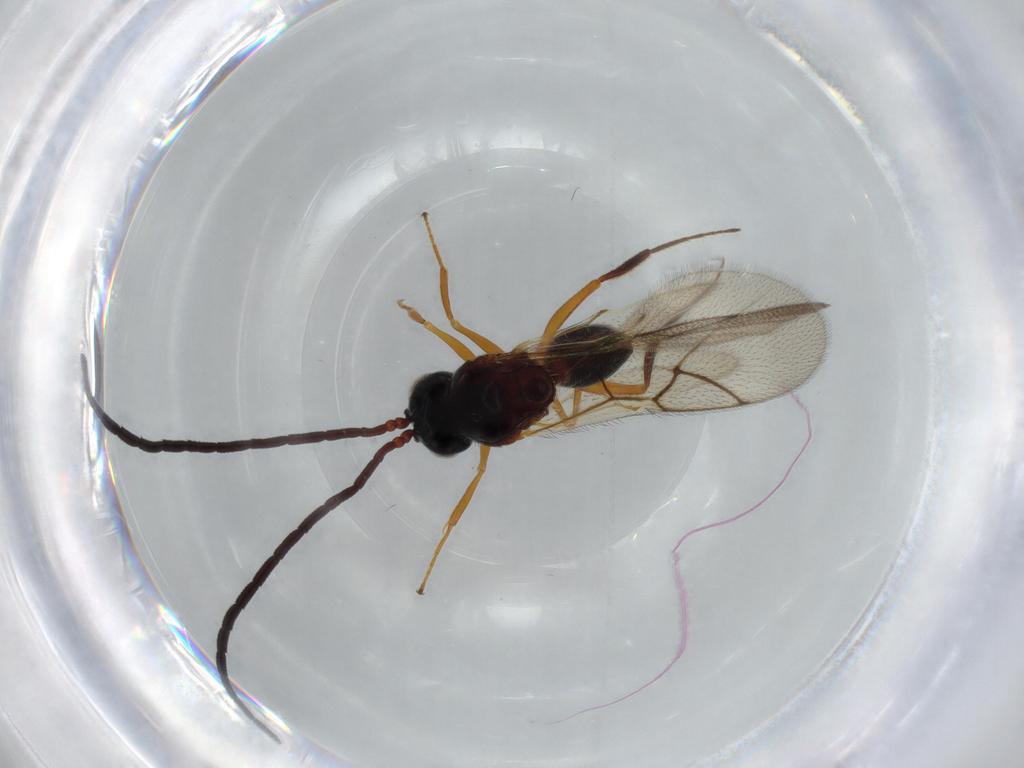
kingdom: Animalia
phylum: Arthropoda
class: Insecta
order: Hymenoptera
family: Figitidae
